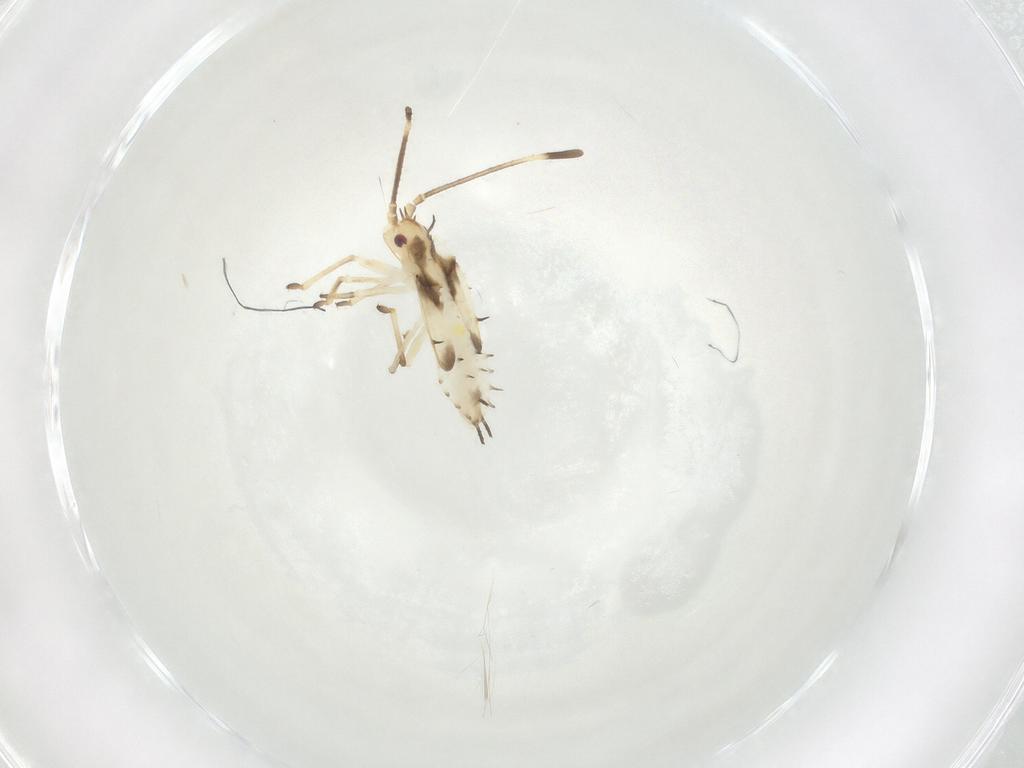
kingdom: Animalia
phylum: Arthropoda
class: Insecta
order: Hemiptera
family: Tingidae
